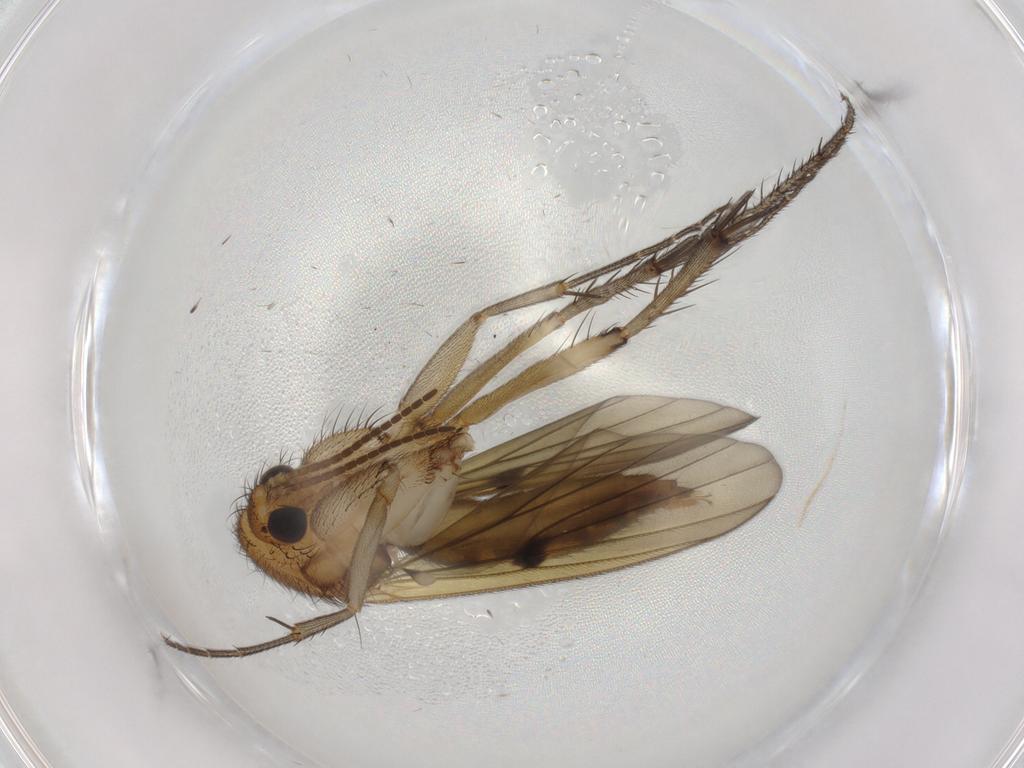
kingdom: Animalia
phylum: Arthropoda
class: Insecta
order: Diptera
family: Mycetophilidae
